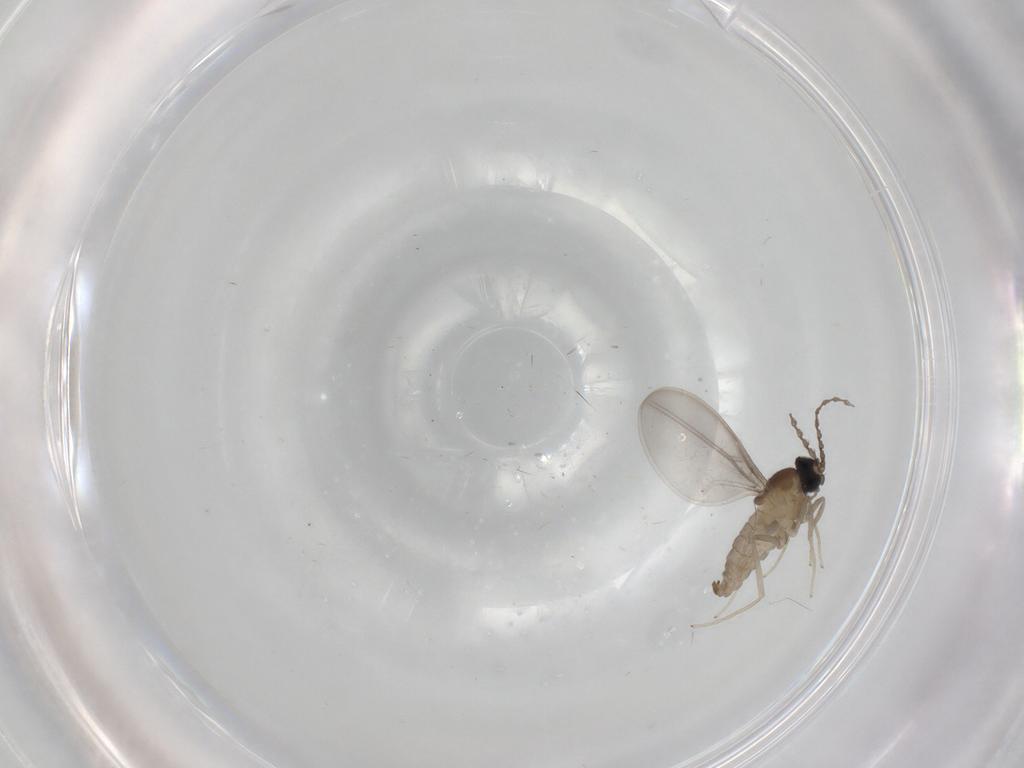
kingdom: Animalia
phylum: Arthropoda
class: Insecta
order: Diptera
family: Cecidomyiidae
